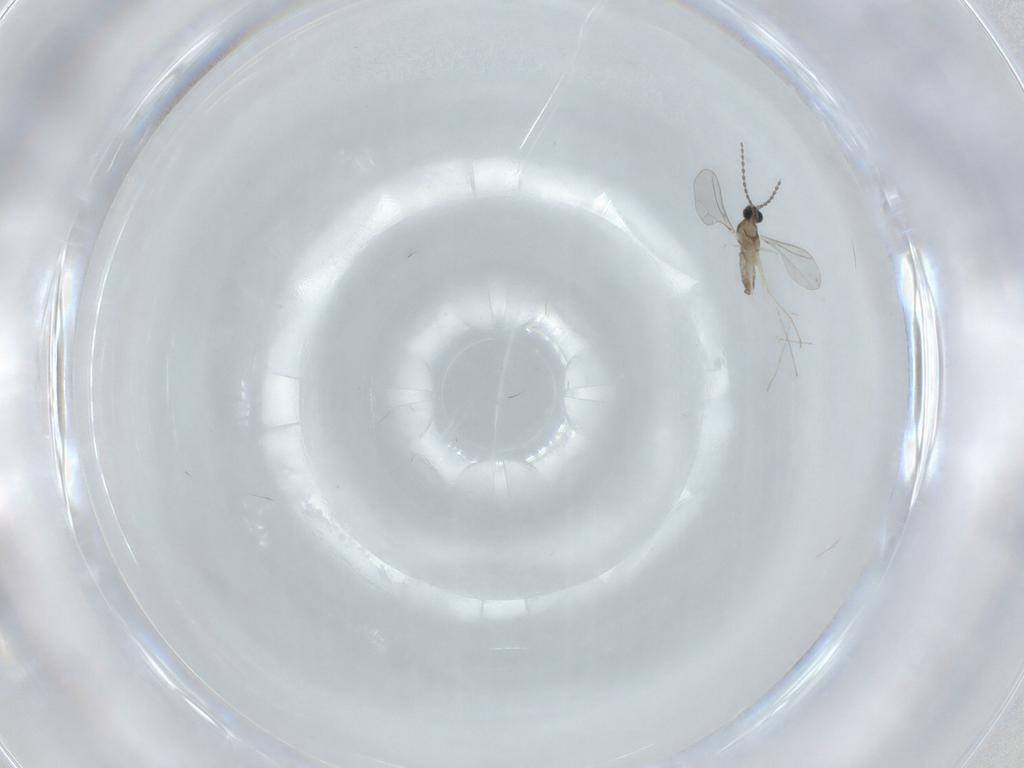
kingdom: Animalia
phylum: Arthropoda
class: Insecta
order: Diptera
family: Cecidomyiidae
